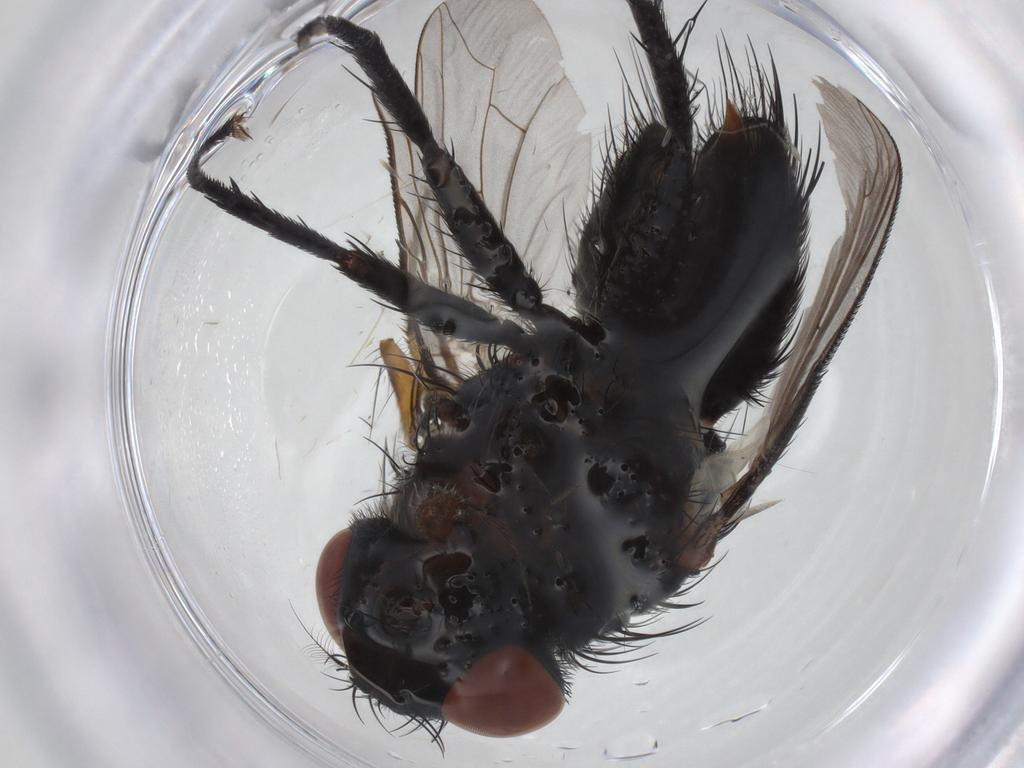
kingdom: Animalia
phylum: Arthropoda
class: Insecta
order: Diptera
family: Sarcophagidae
